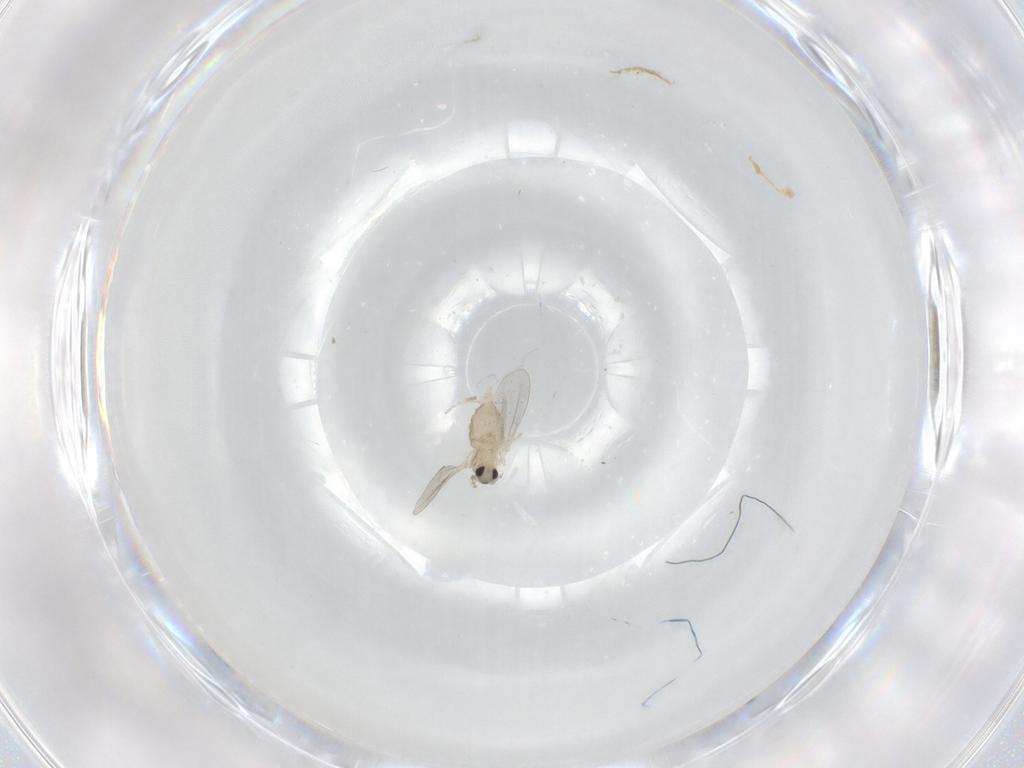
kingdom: Animalia
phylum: Arthropoda
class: Insecta
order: Diptera
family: Cecidomyiidae
